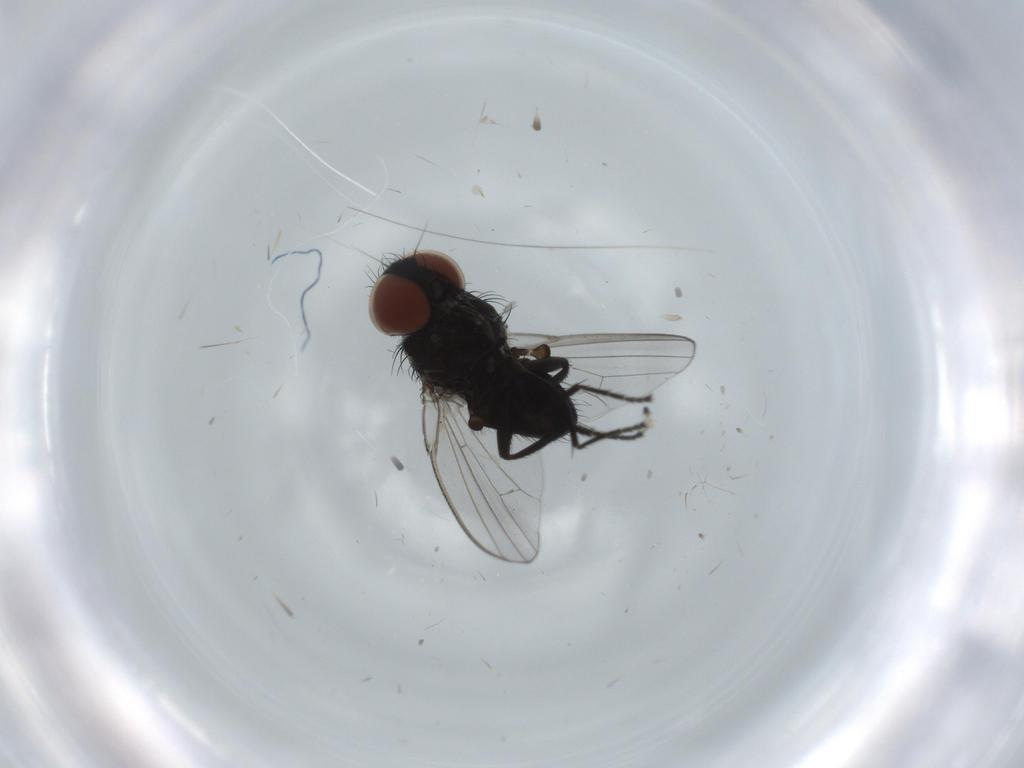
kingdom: Animalia
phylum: Arthropoda
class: Insecta
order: Diptera
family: Milichiidae
